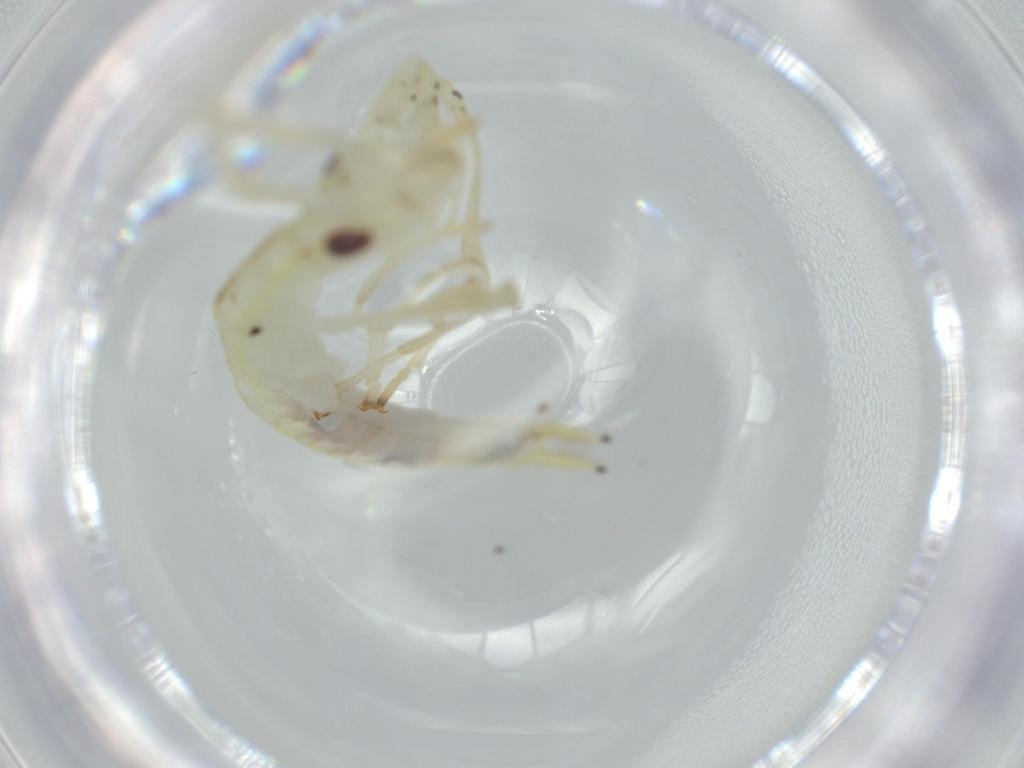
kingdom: Animalia
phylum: Arthropoda
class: Insecta
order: Orthoptera
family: Oecanthidae
